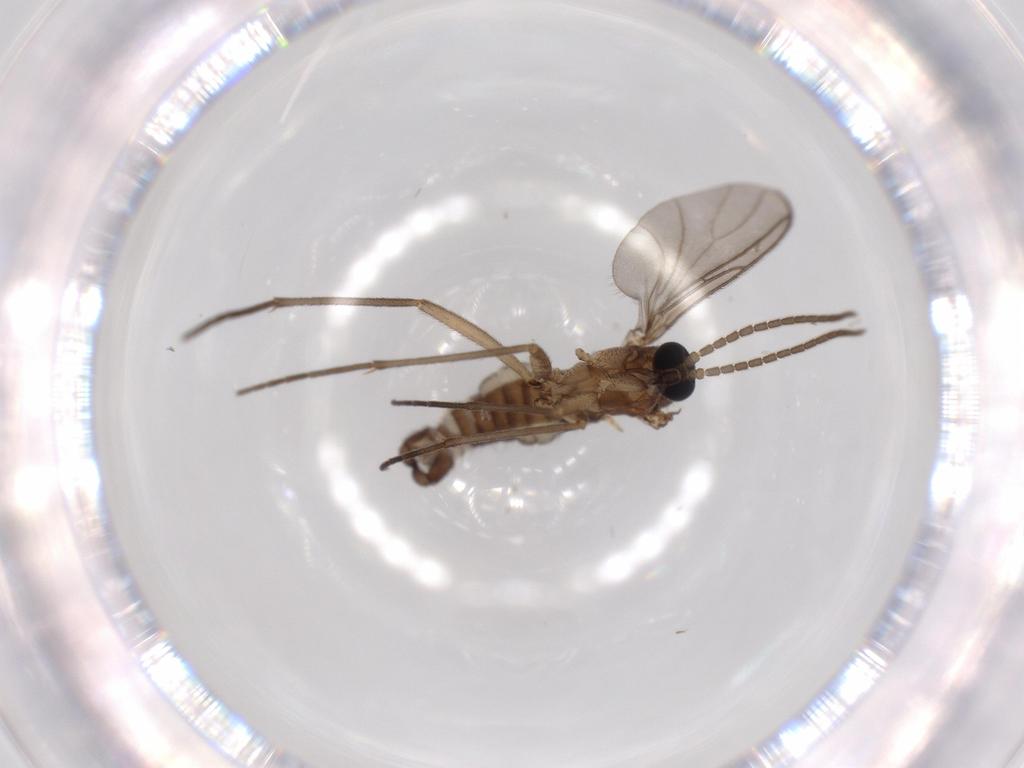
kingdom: Animalia
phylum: Arthropoda
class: Insecta
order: Diptera
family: Sciaridae
